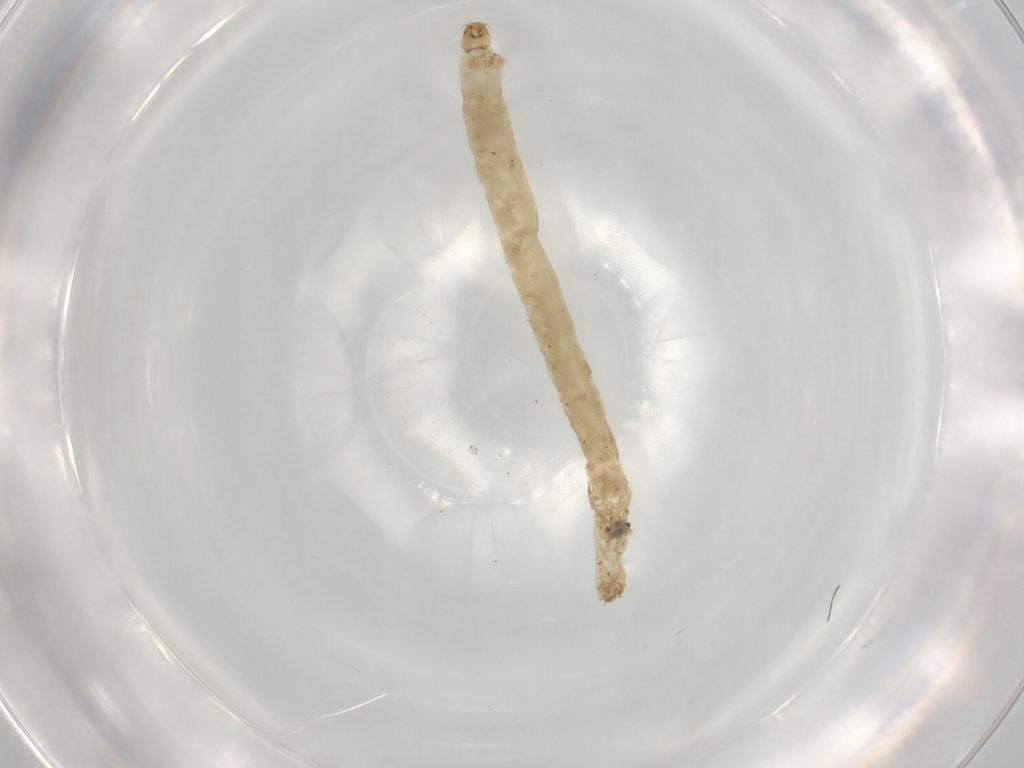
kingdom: Animalia
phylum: Arthropoda
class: Insecta
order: Diptera
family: Chironomidae
